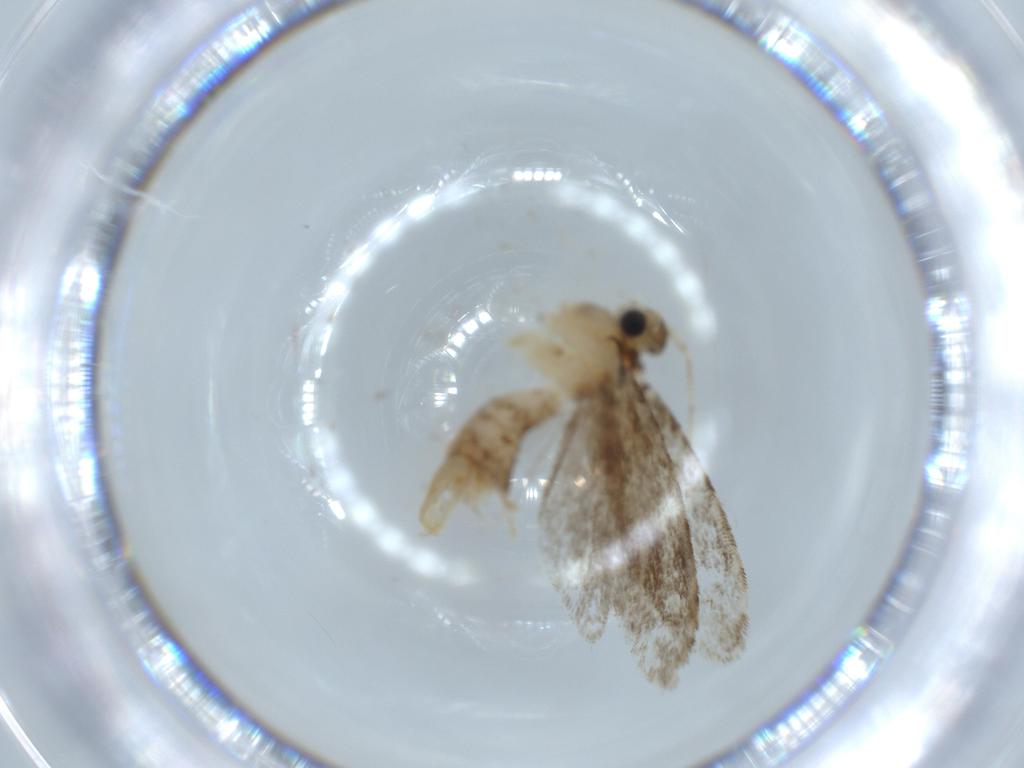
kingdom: Animalia
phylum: Arthropoda
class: Insecta
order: Lepidoptera
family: Tineidae
